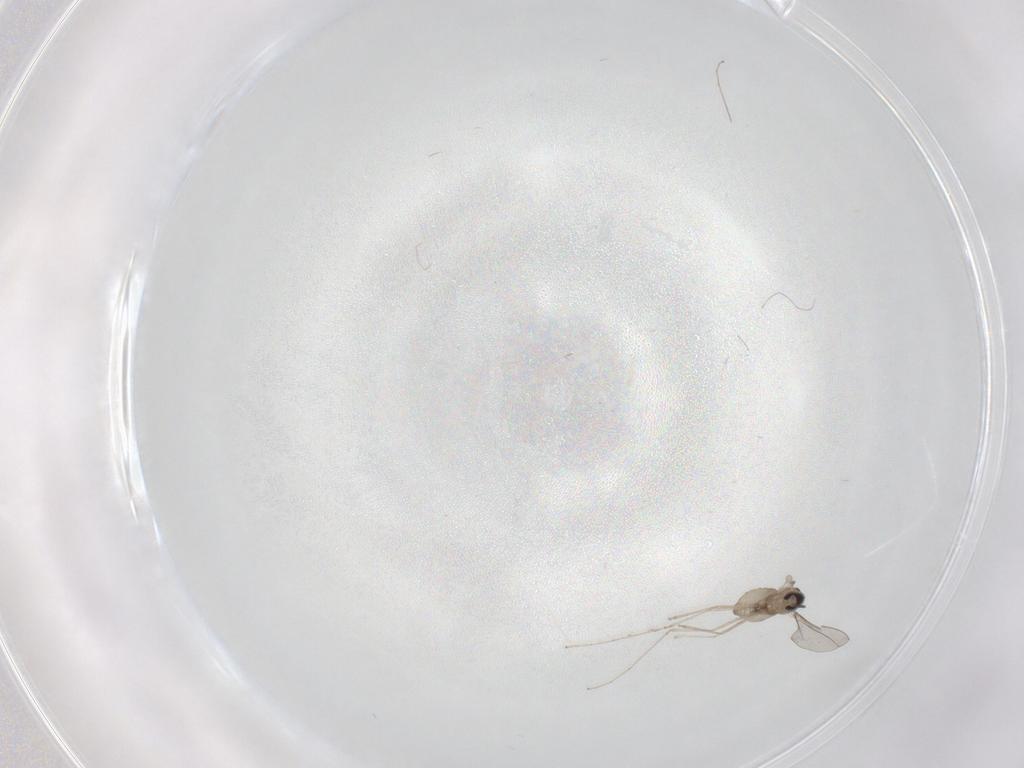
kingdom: Animalia
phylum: Arthropoda
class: Insecta
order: Diptera
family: Cecidomyiidae
